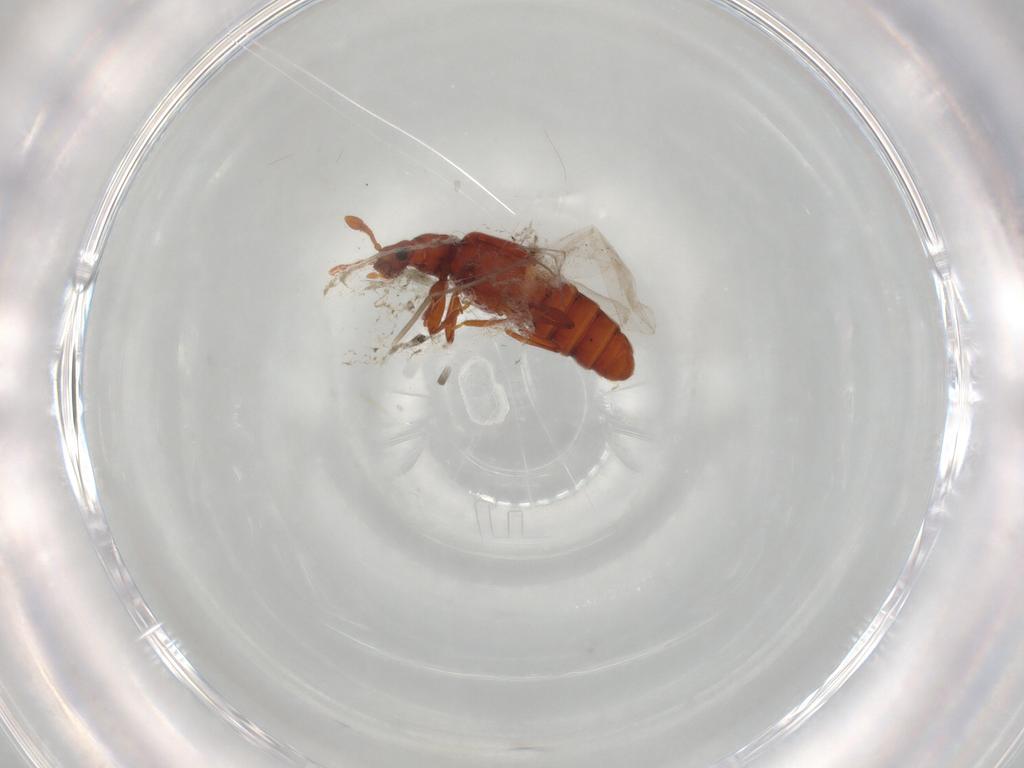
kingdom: Animalia
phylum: Arthropoda
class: Insecta
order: Coleoptera
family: Staphylinidae
